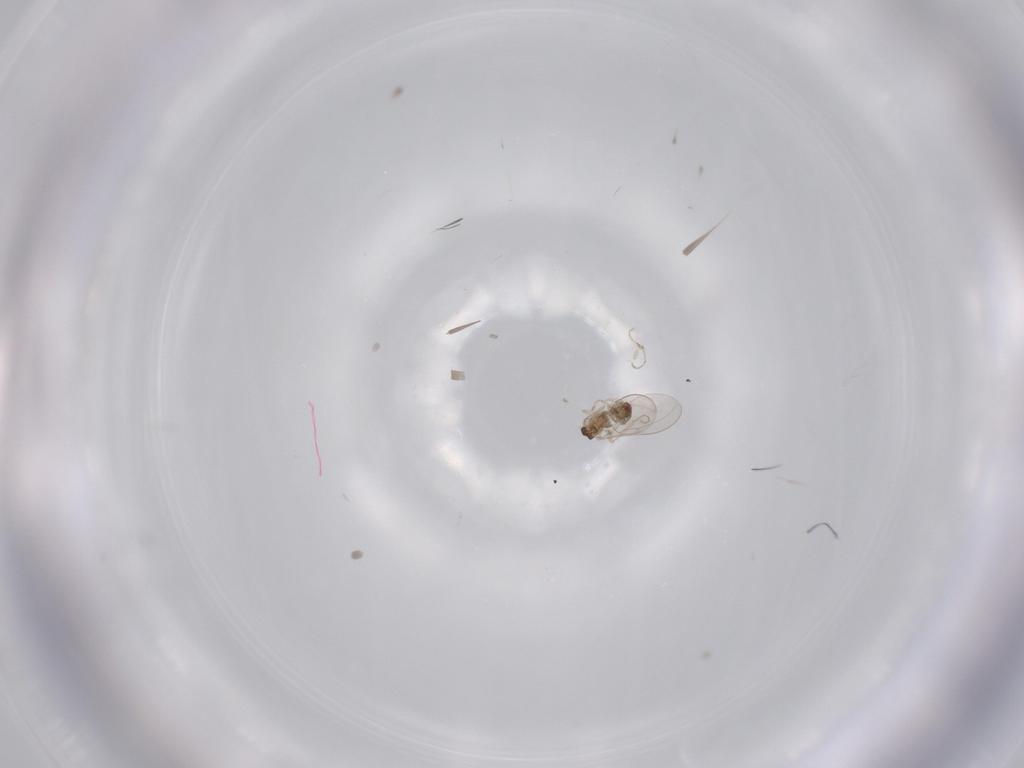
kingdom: Animalia
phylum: Arthropoda
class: Insecta
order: Diptera
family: Cecidomyiidae
